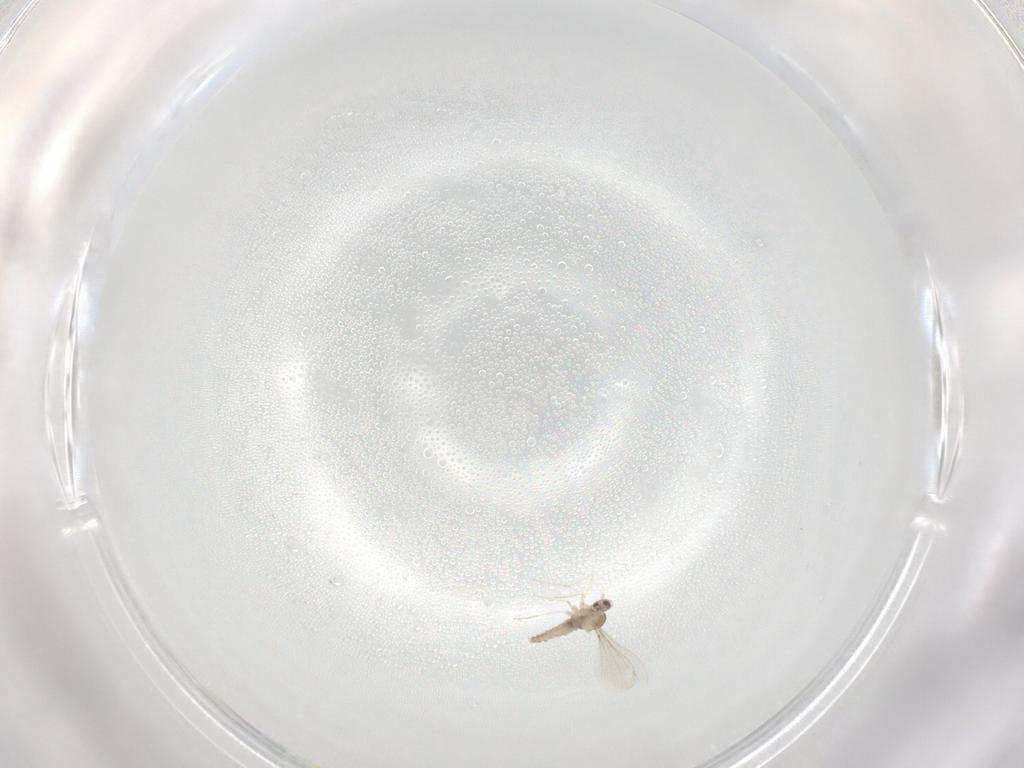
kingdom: Animalia
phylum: Arthropoda
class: Insecta
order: Diptera
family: Cecidomyiidae
